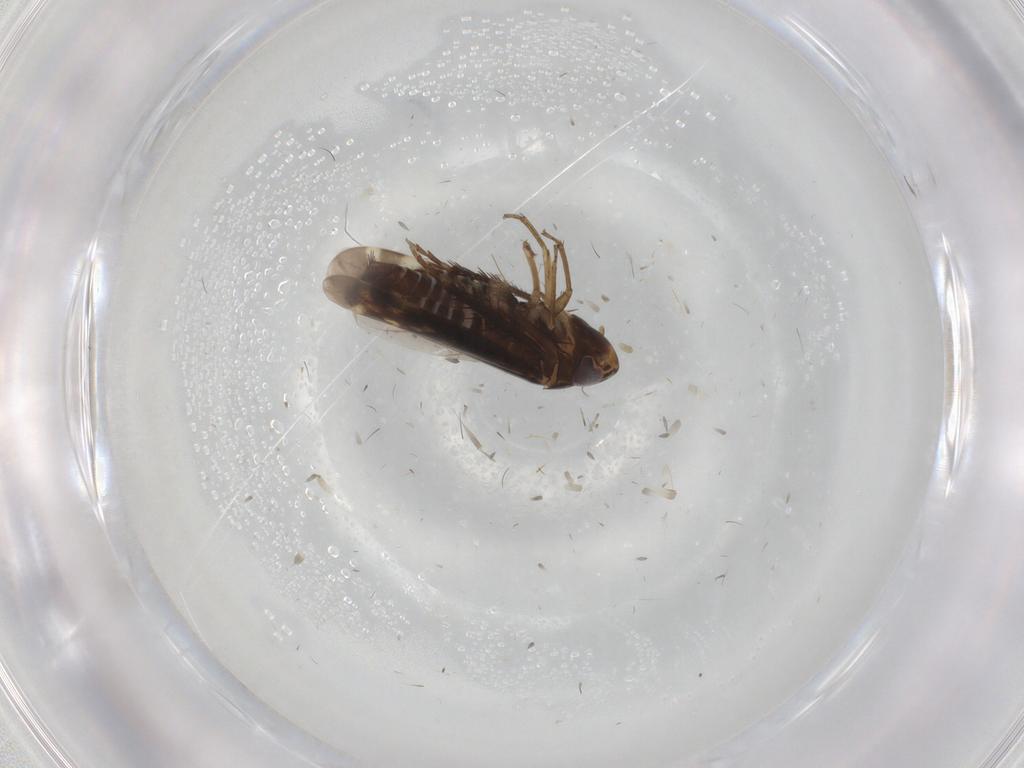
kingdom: Animalia
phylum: Arthropoda
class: Insecta
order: Hemiptera
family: Cicadellidae
